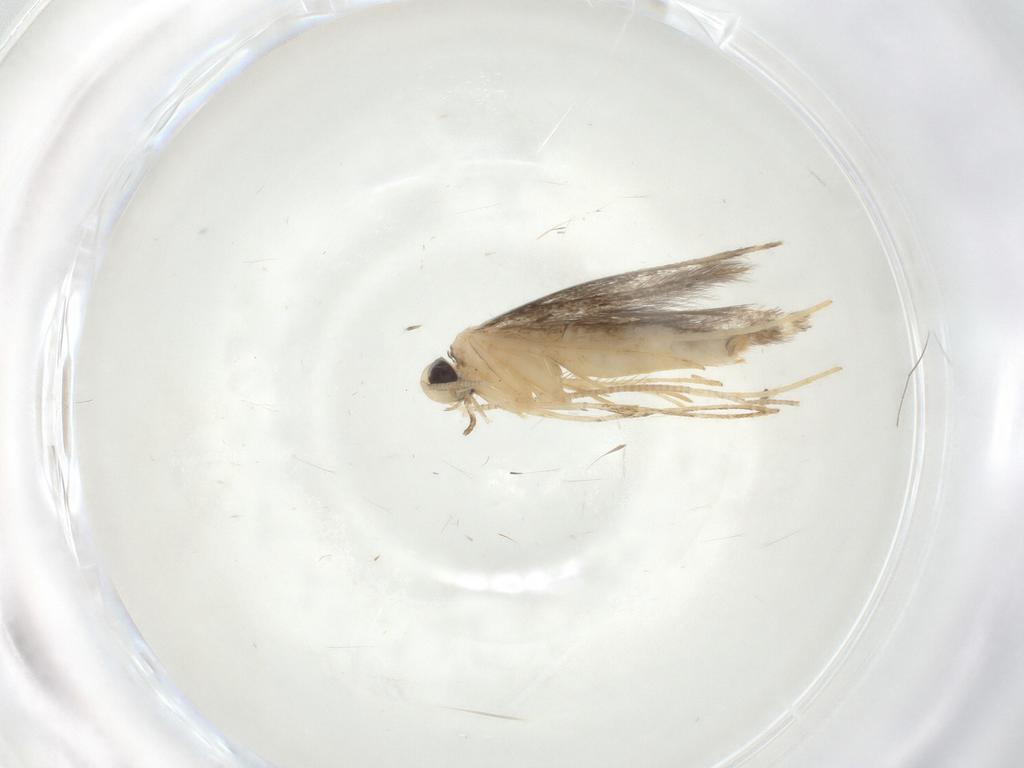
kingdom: Animalia
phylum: Arthropoda
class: Insecta
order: Lepidoptera
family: Gracillariidae
